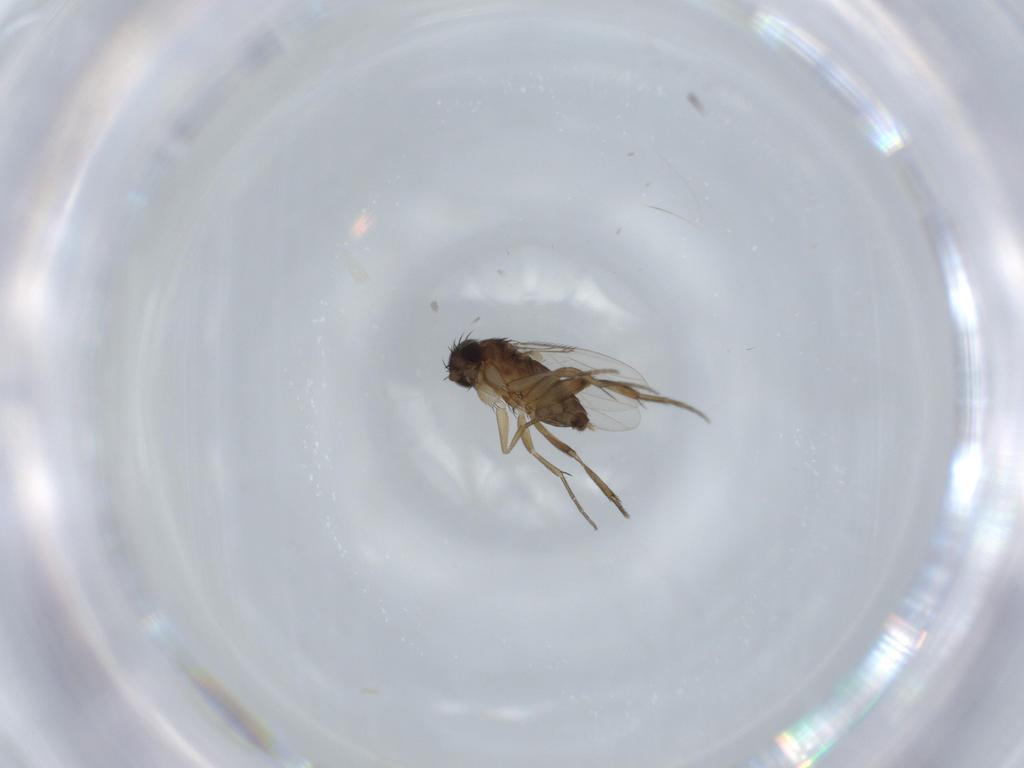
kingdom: Animalia
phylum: Arthropoda
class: Insecta
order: Diptera
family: Phoridae
